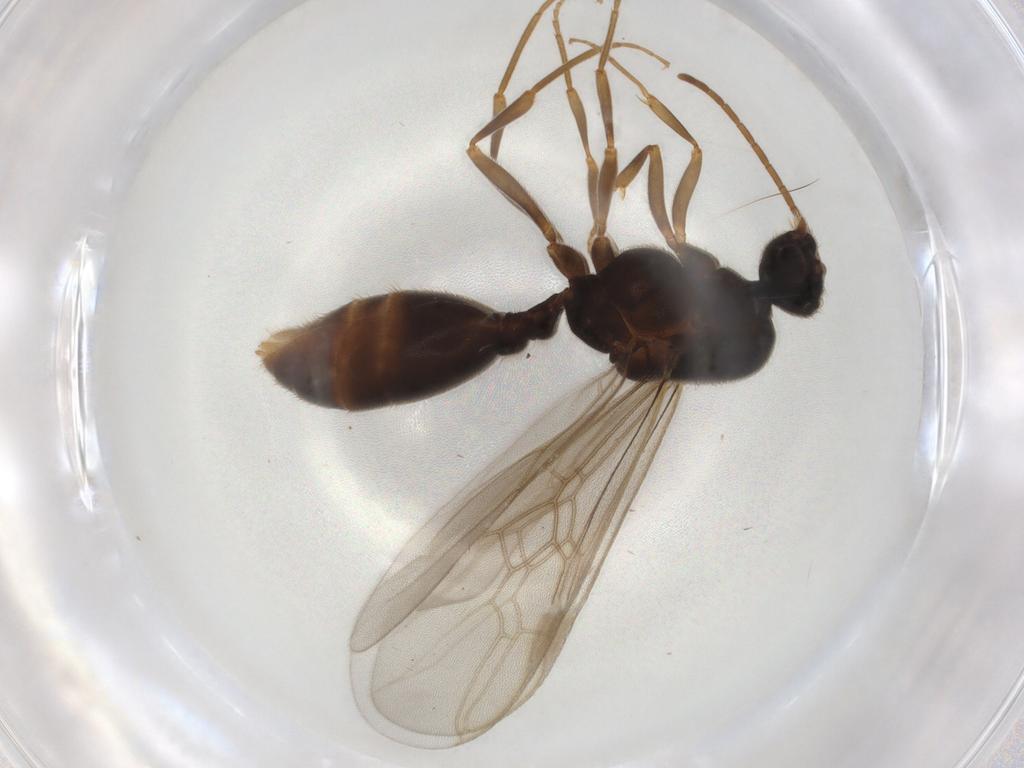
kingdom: Animalia
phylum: Arthropoda
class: Insecta
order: Hymenoptera
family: Formicidae
